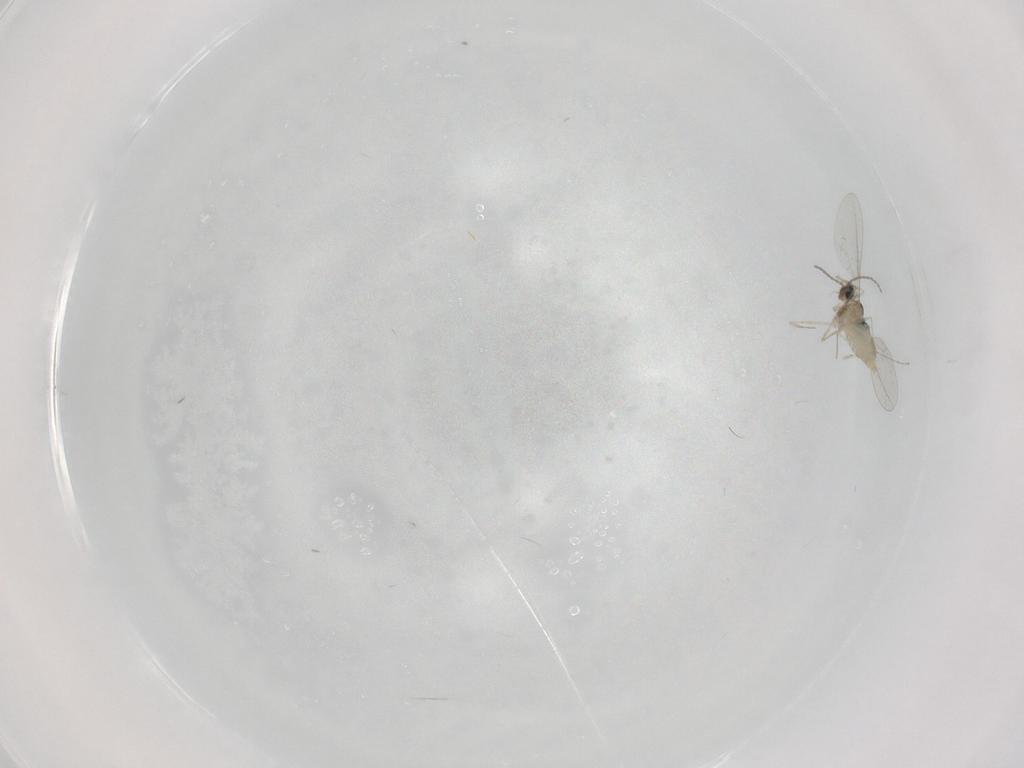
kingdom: Animalia
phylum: Arthropoda
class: Insecta
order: Diptera
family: Cecidomyiidae
